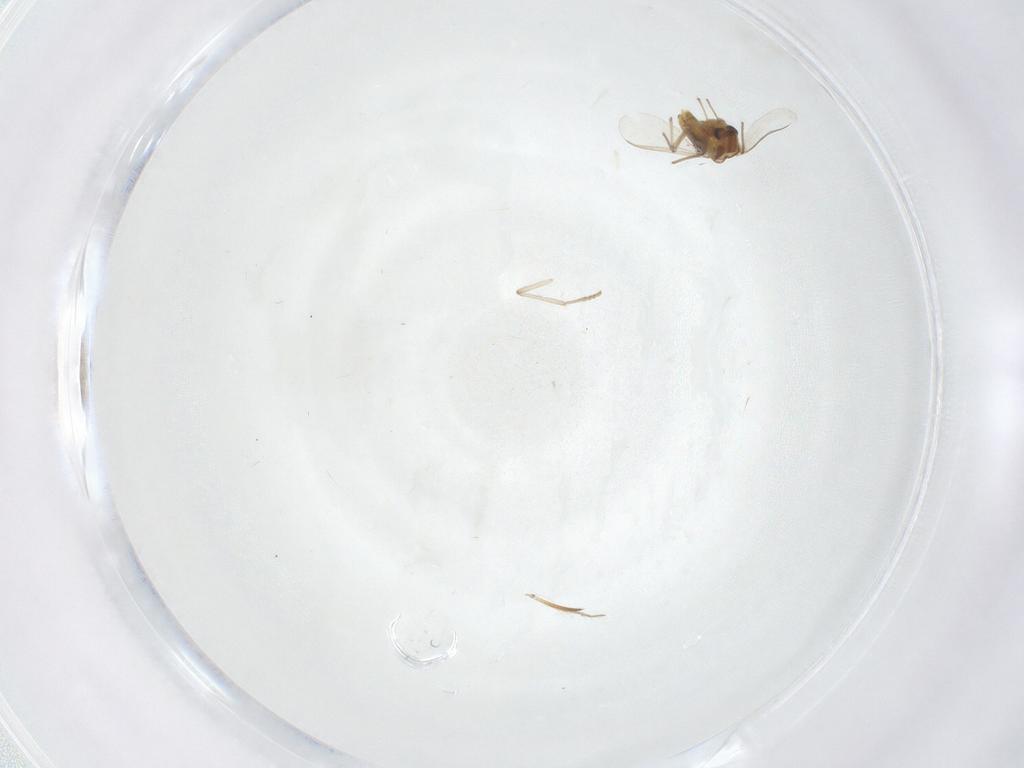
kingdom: Animalia
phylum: Arthropoda
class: Insecta
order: Diptera
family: Chironomidae
